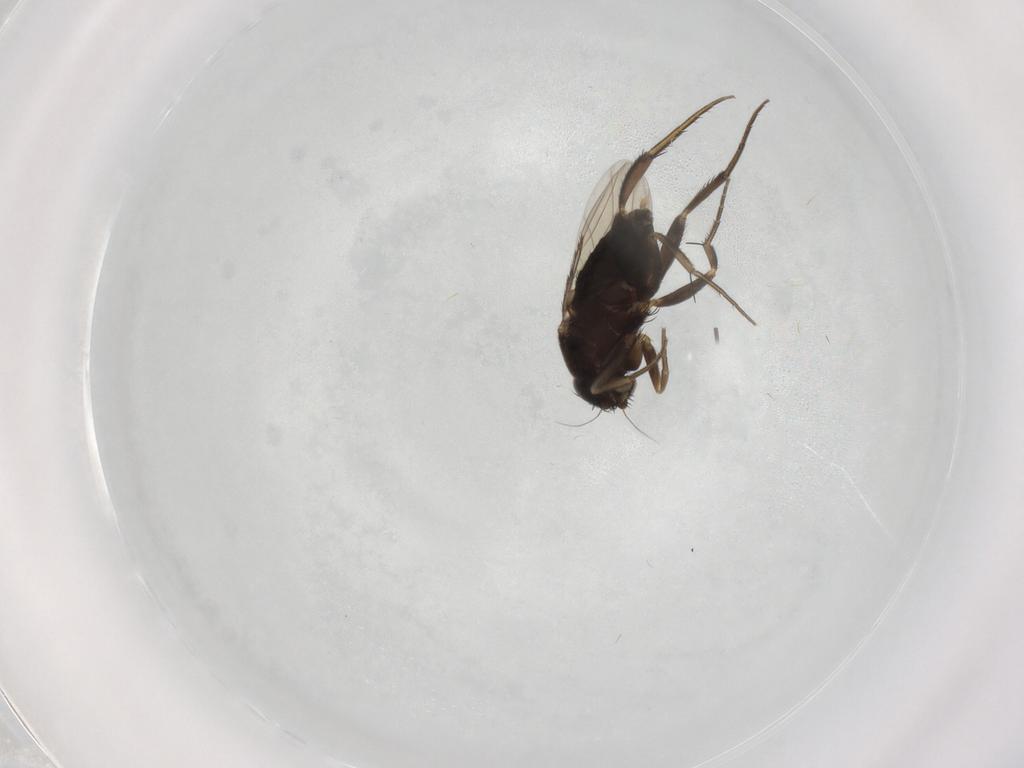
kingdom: Animalia
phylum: Arthropoda
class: Insecta
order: Diptera
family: Phoridae
